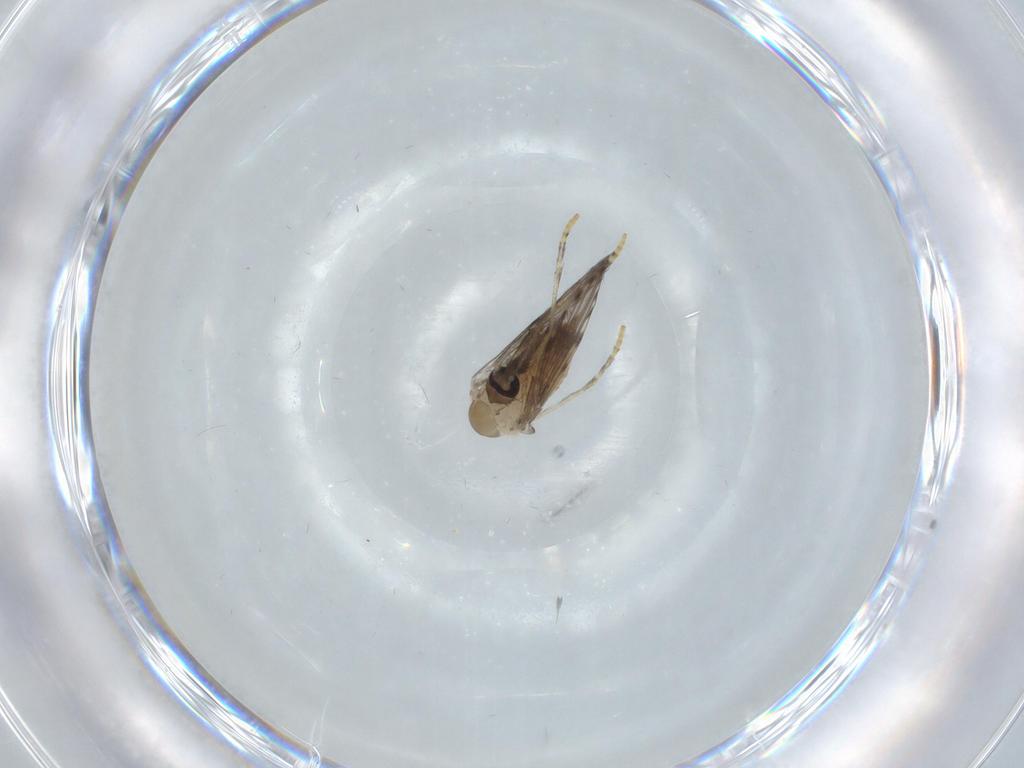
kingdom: Animalia
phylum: Arthropoda
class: Insecta
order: Diptera
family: Psychodidae
